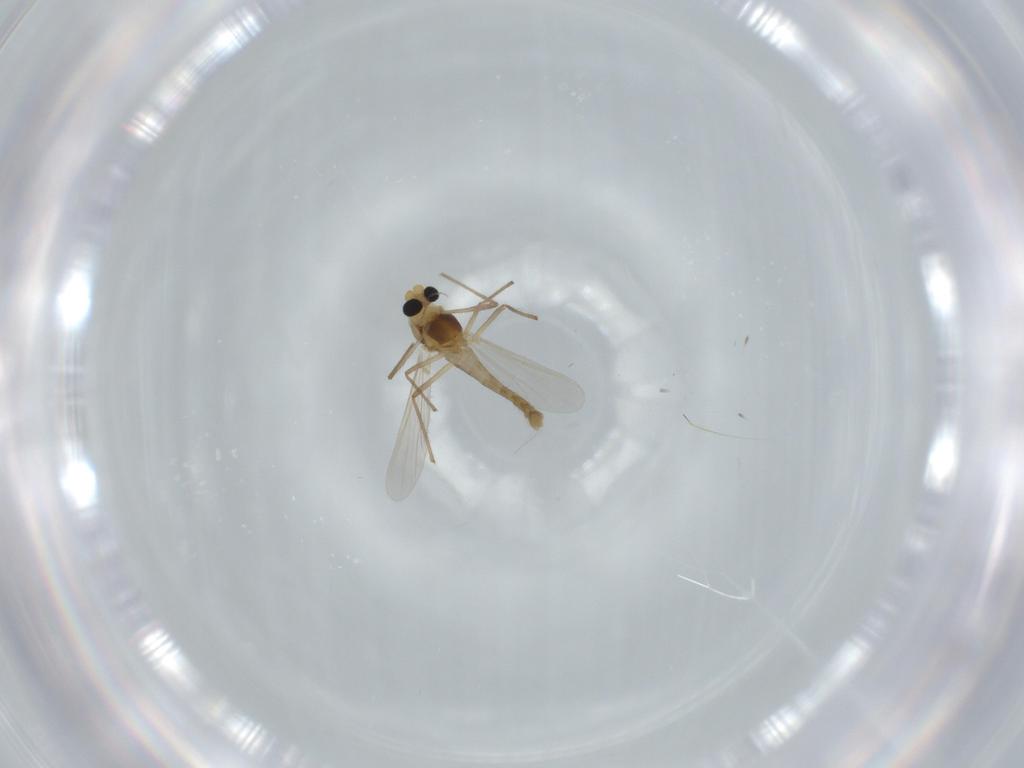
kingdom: Animalia
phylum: Arthropoda
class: Insecta
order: Diptera
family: Chironomidae
